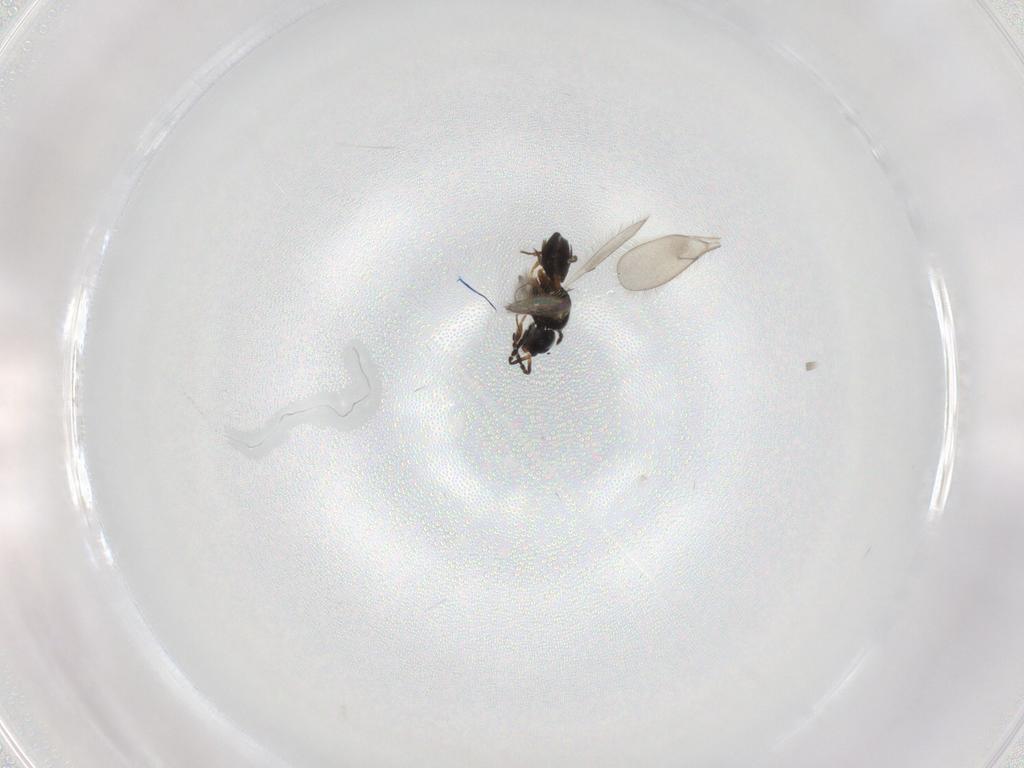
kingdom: Animalia
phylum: Arthropoda
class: Insecta
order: Hymenoptera
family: Scelionidae
